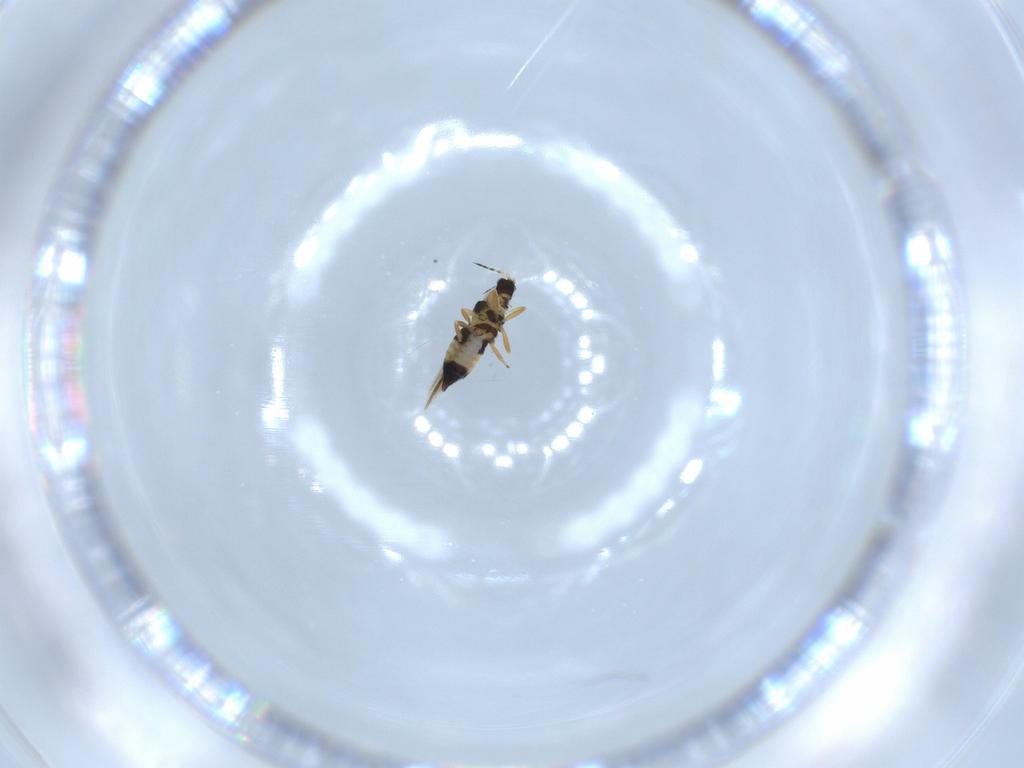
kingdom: Animalia
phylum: Arthropoda
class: Insecta
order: Thysanoptera
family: Thripidae
